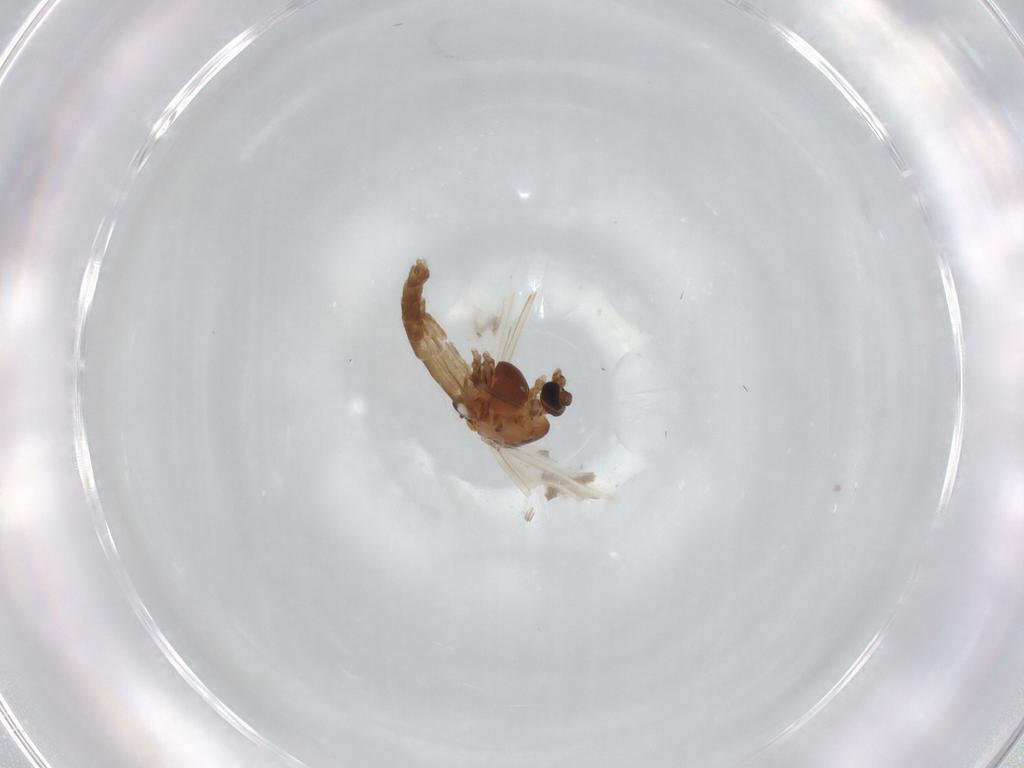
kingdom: Animalia
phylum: Arthropoda
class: Insecta
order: Diptera
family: Chironomidae
